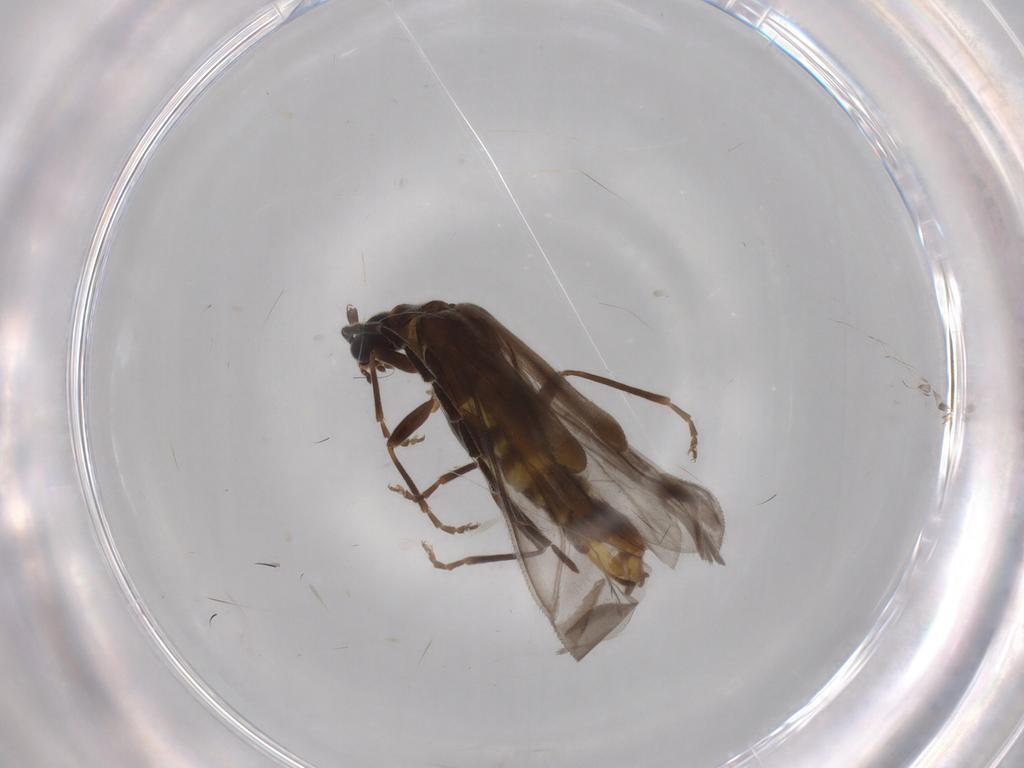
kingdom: Animalia
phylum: Arthropoda
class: Insecta
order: Coleoptera
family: Cantharidae
